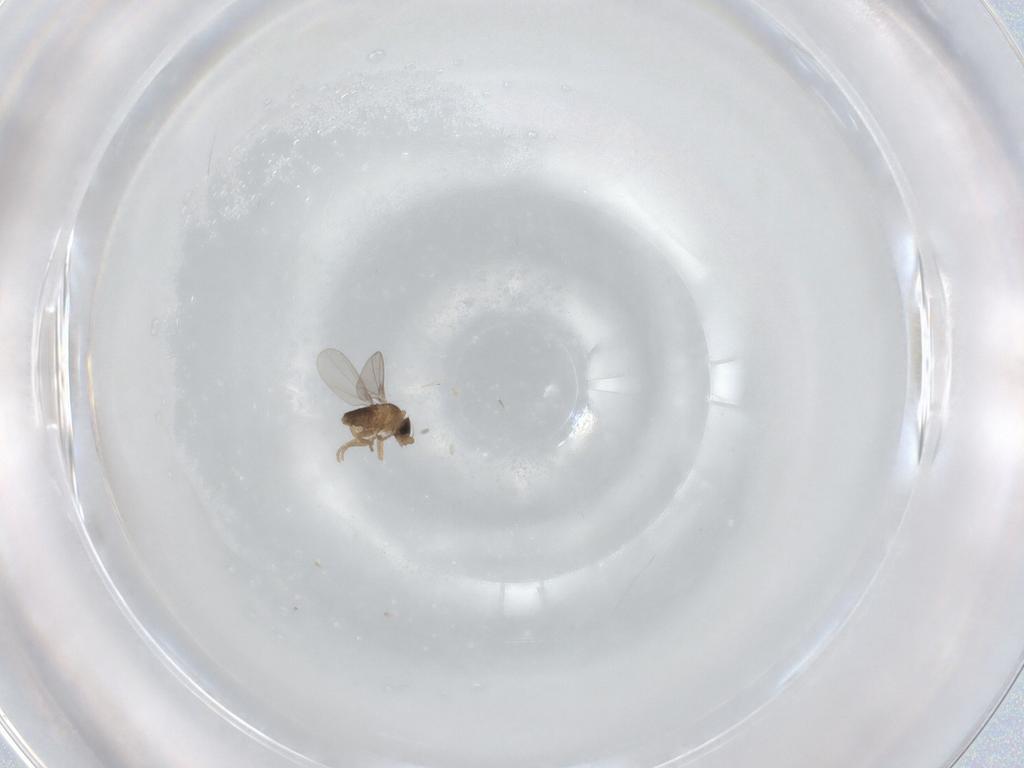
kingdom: Animalia
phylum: Arthropoda
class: Insecta
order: Diptera
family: Phoridae
